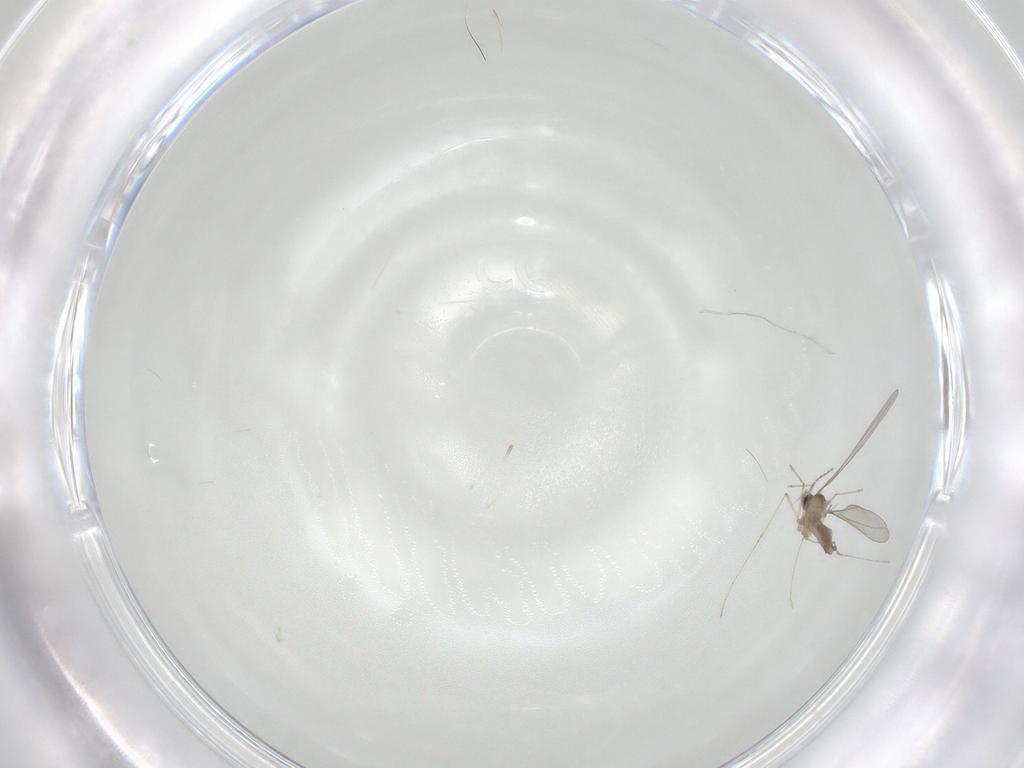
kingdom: Animalia
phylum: Arthropoda
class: Insecta
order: Diptera
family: Cecidomyiidae
